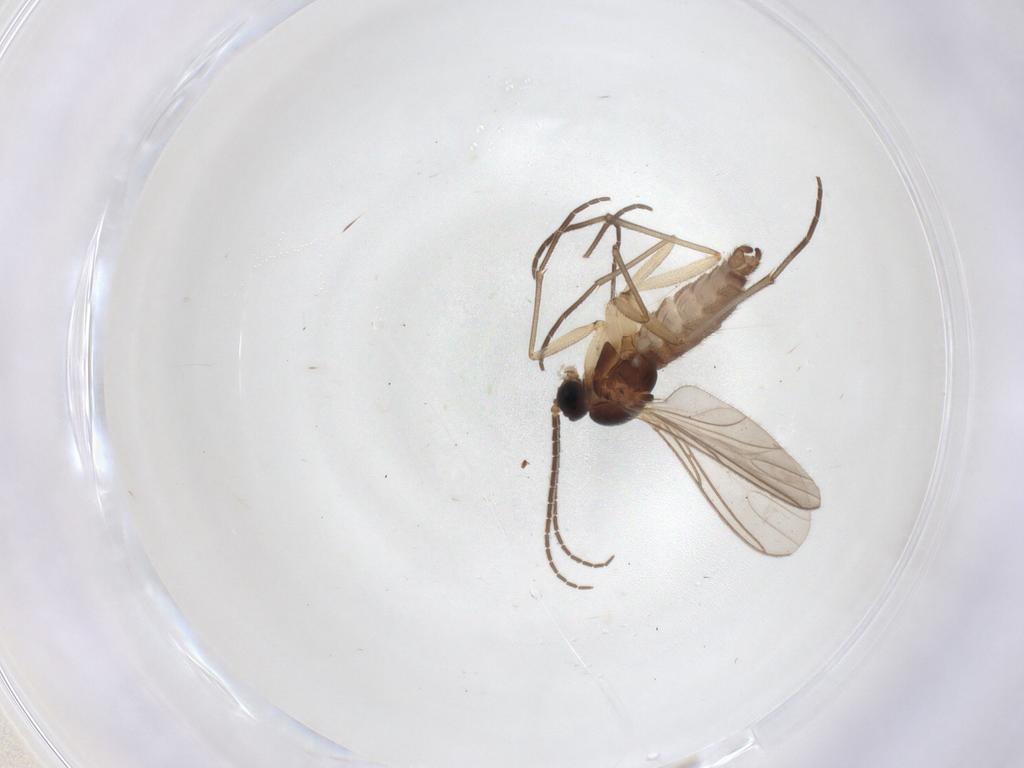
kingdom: Animalia
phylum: Arthropoda
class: Insecta
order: Diptera
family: Sciaridae
